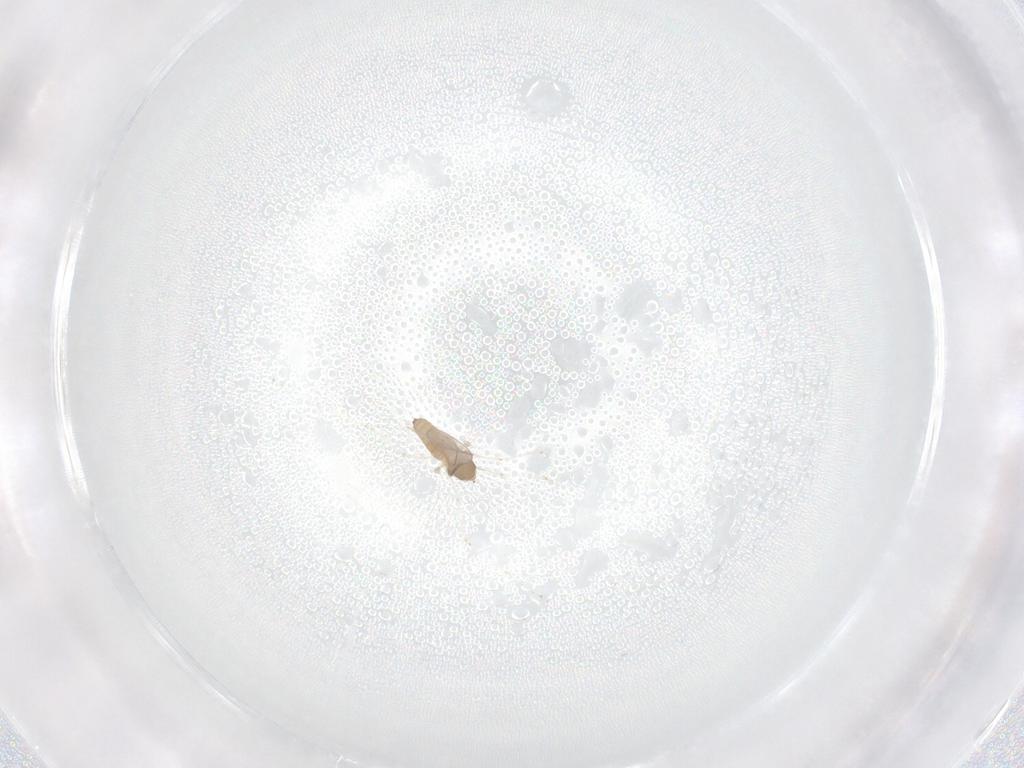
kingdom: Animalia
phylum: Arthropoda
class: Insecta
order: Diptera
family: Cecidomyiidae
